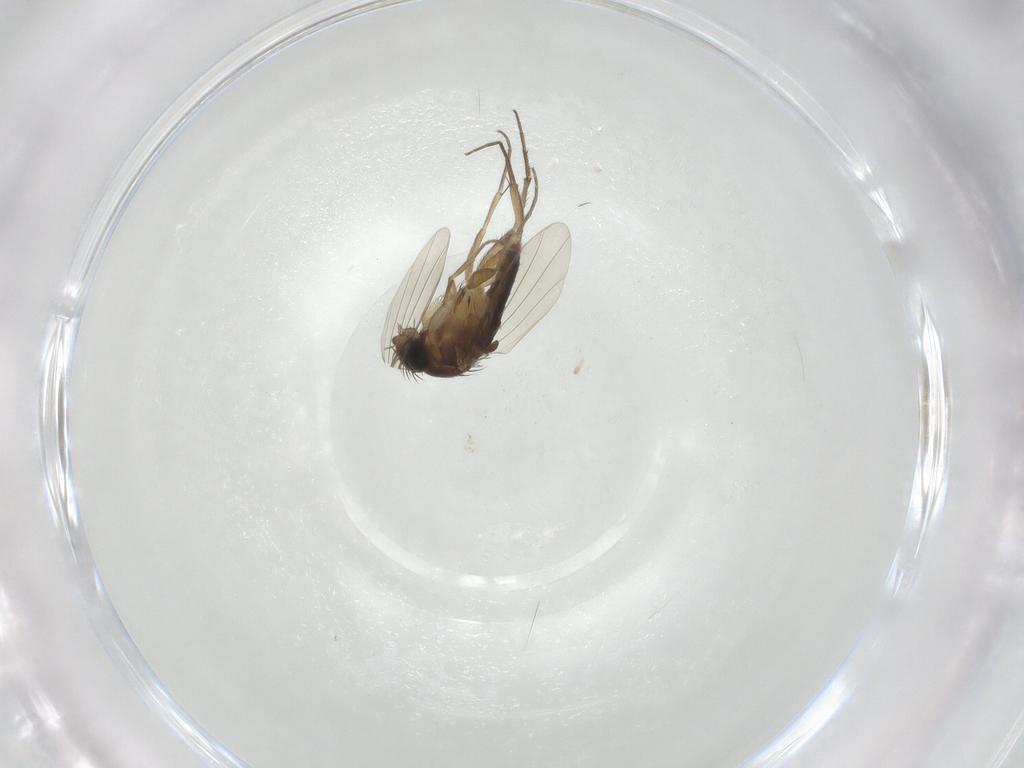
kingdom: Animalia
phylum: Arthropoda
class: Insecta
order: Diptera
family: Phoridae
